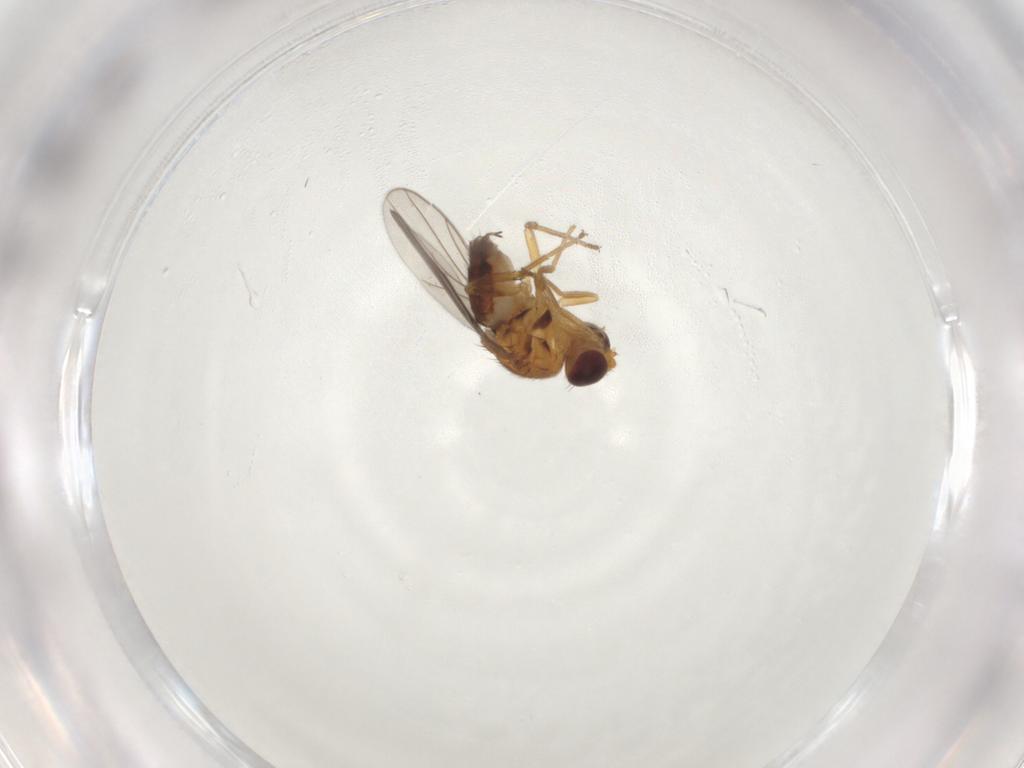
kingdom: Animalia
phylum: Arthropoda
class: Insecta
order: Diptera
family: Chloropidae
